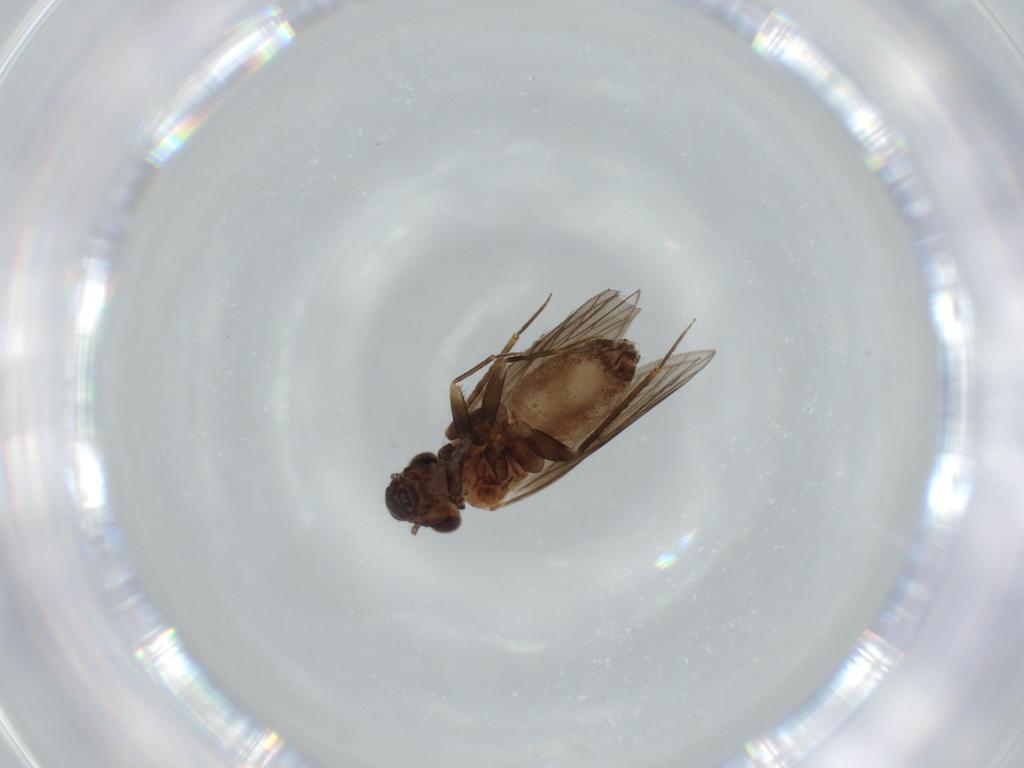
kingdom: Animalia
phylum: Arthropoda
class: Insecta
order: Psocodea
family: Lepidopsocidae
